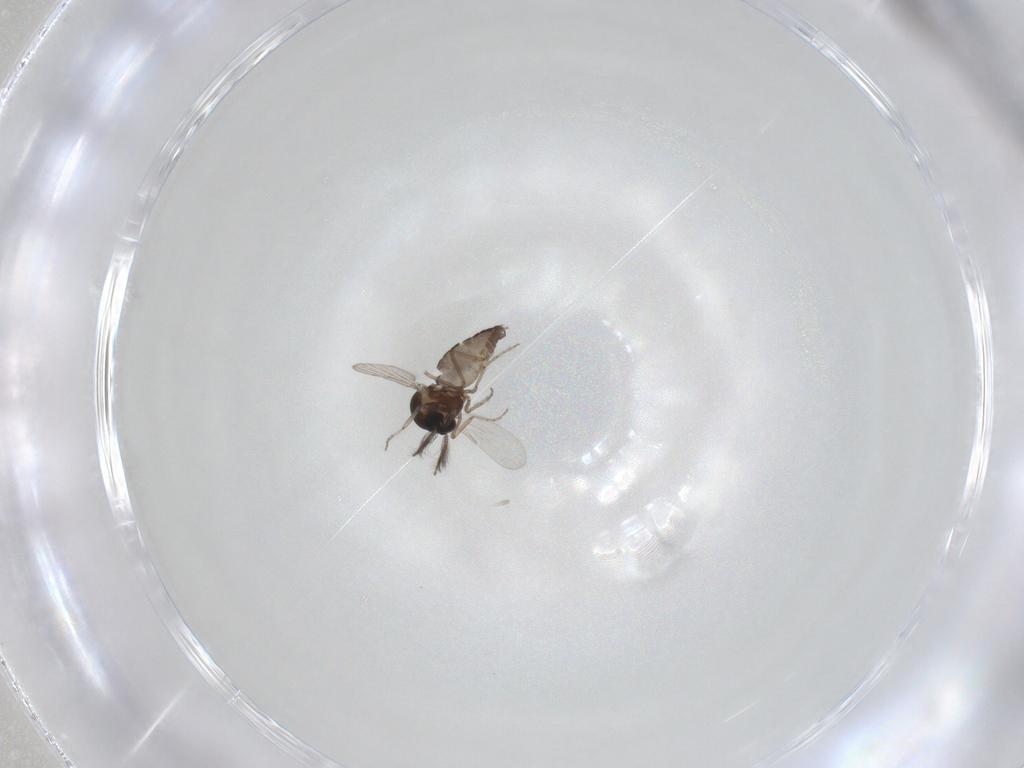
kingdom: Animalia
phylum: Arthropoda
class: Insecta
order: Diptera
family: Cecidomyiidae
